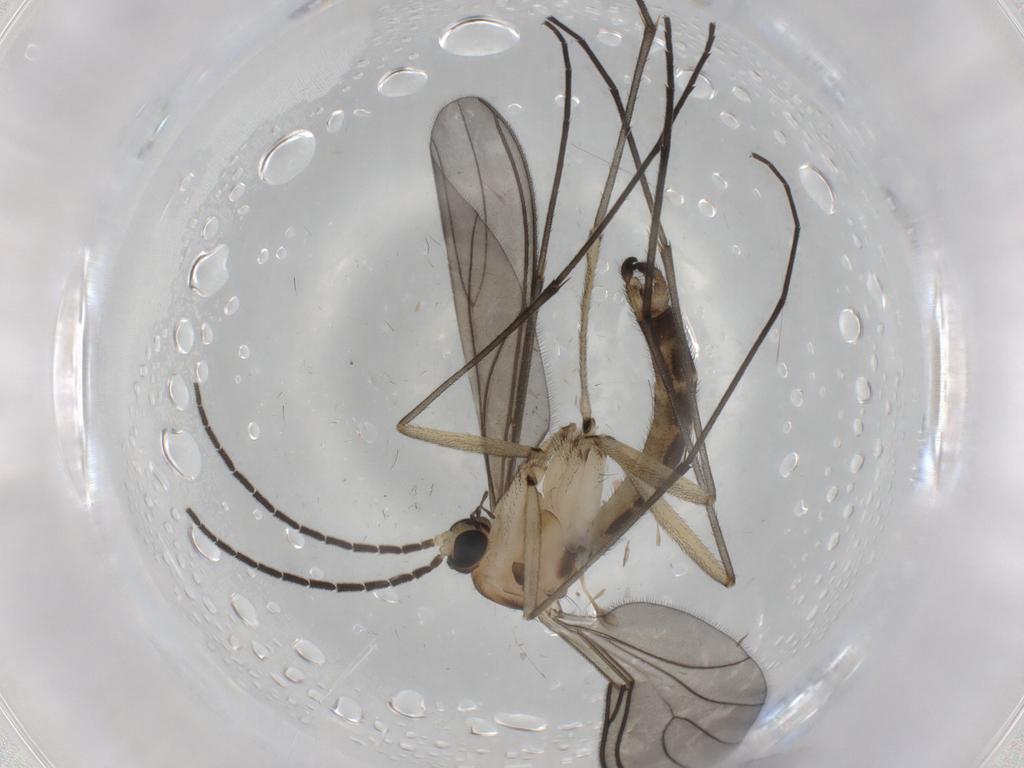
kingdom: Animalia
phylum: Arthropoda
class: Insecta
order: Diptera
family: Sciaridae
